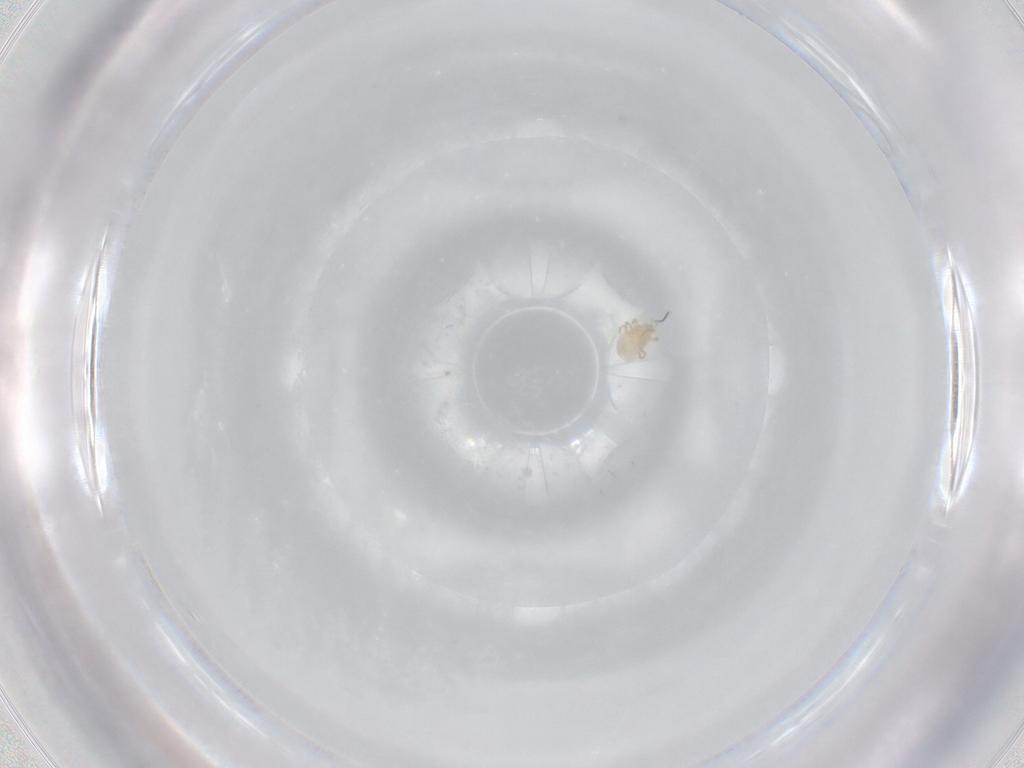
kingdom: Animalia
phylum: Arthropoda
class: Arachnida
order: Mesostigmata
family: Phytoseiidae
